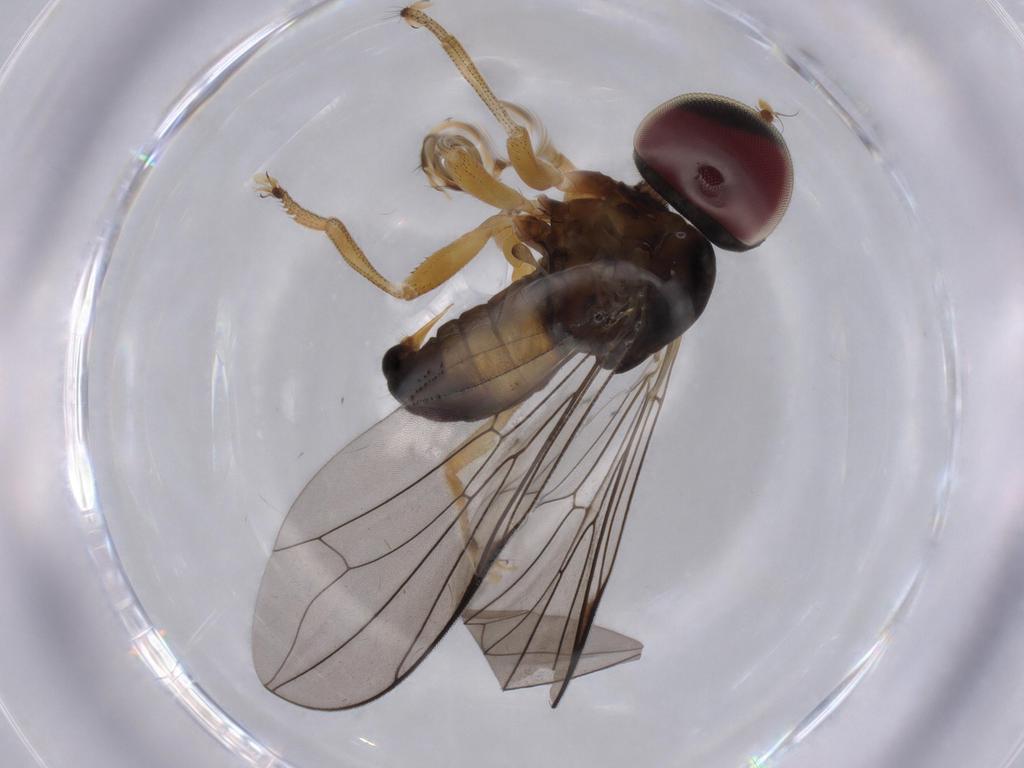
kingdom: Animalia
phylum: Arthropoda
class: Insecta
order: Diptera
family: Pipunculidae
